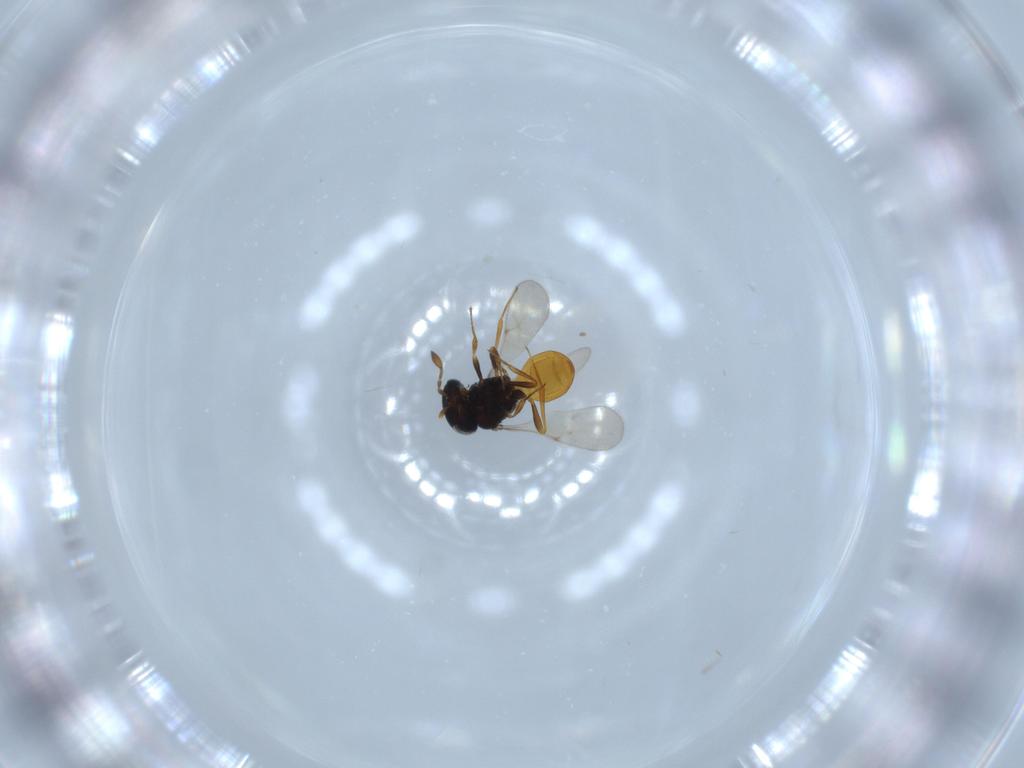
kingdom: Animalia
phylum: Arthropoda
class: Insecta
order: Hymenoptera
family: Scelionidae
